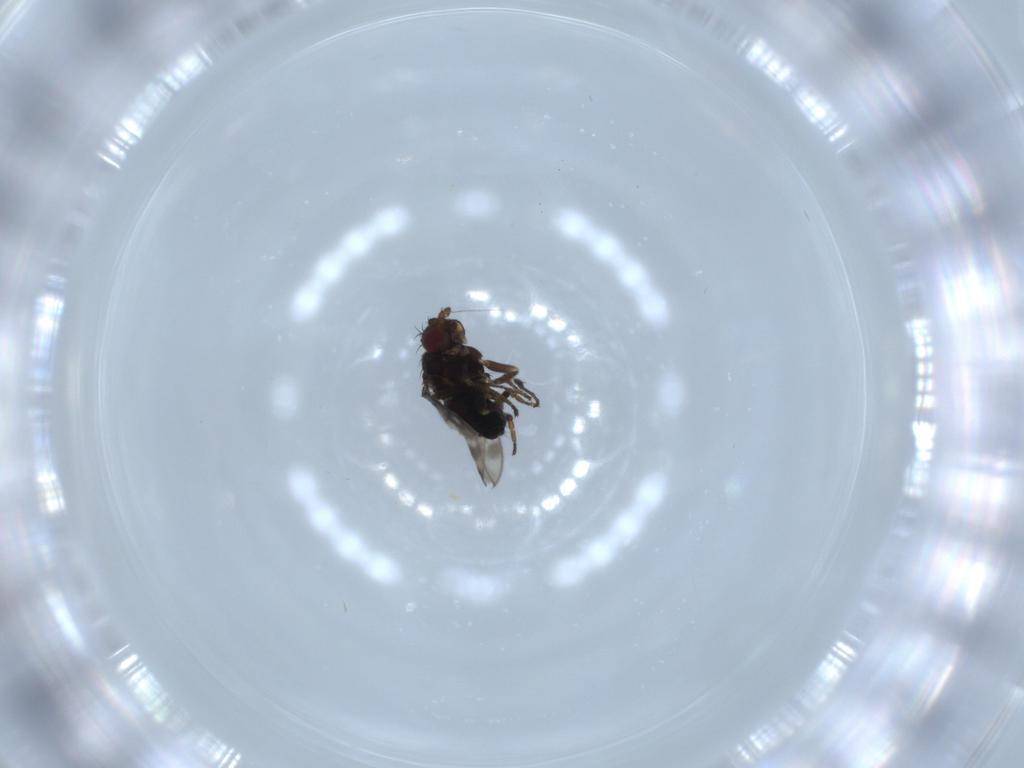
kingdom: Animalia
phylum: Arthropoda
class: Insecta
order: Diptera
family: Sphaeroceridae
